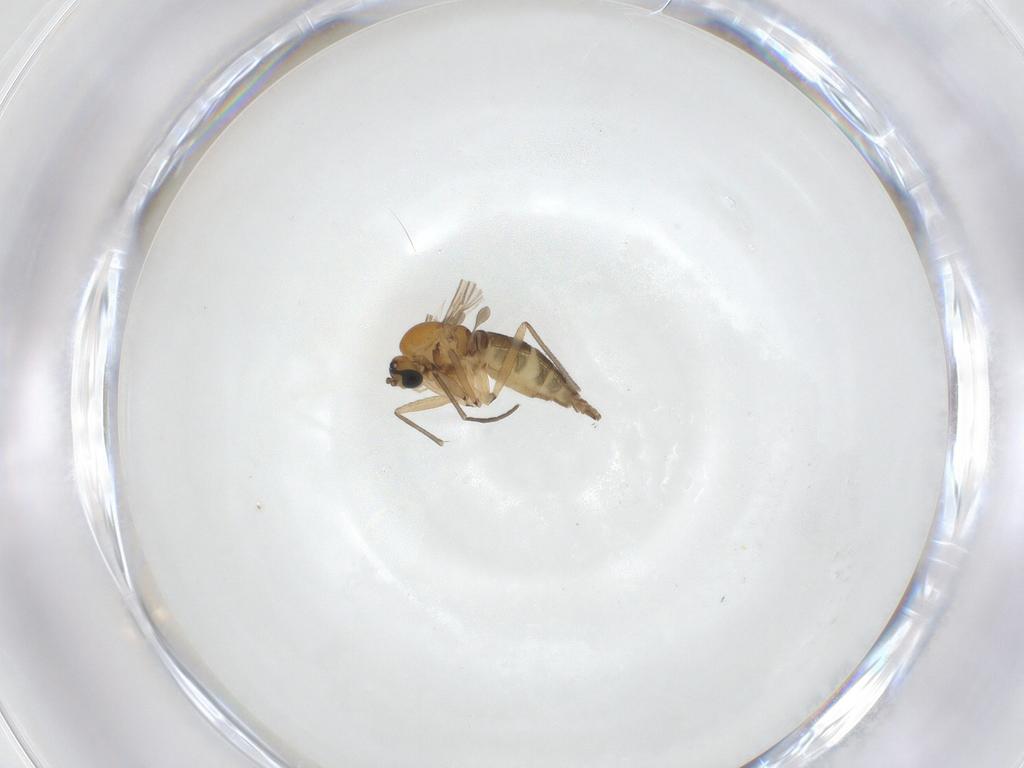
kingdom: Animalia
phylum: Arthropoda
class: Insecta
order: Diptera
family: Sciaridae
